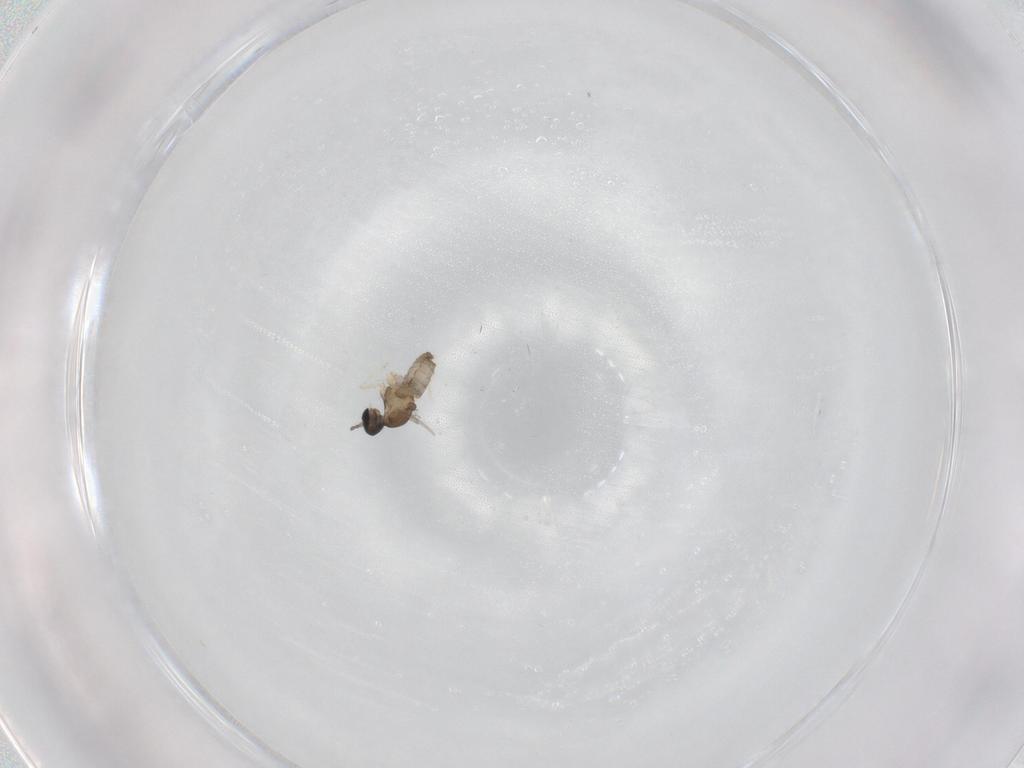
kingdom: Animalia
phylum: Arthropoda
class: Insecta
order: Diptera
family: Cecidomyiidae
